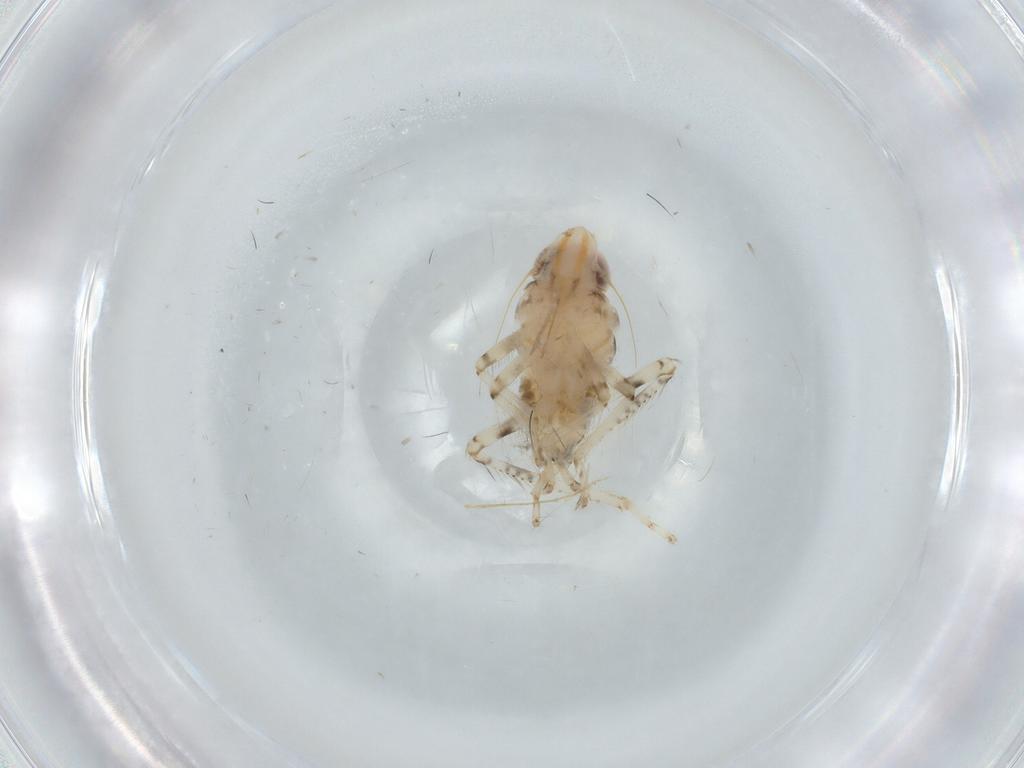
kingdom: Animalia
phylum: Arthropoda
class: Insecta
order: Hemiptera
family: Cicadellidae
